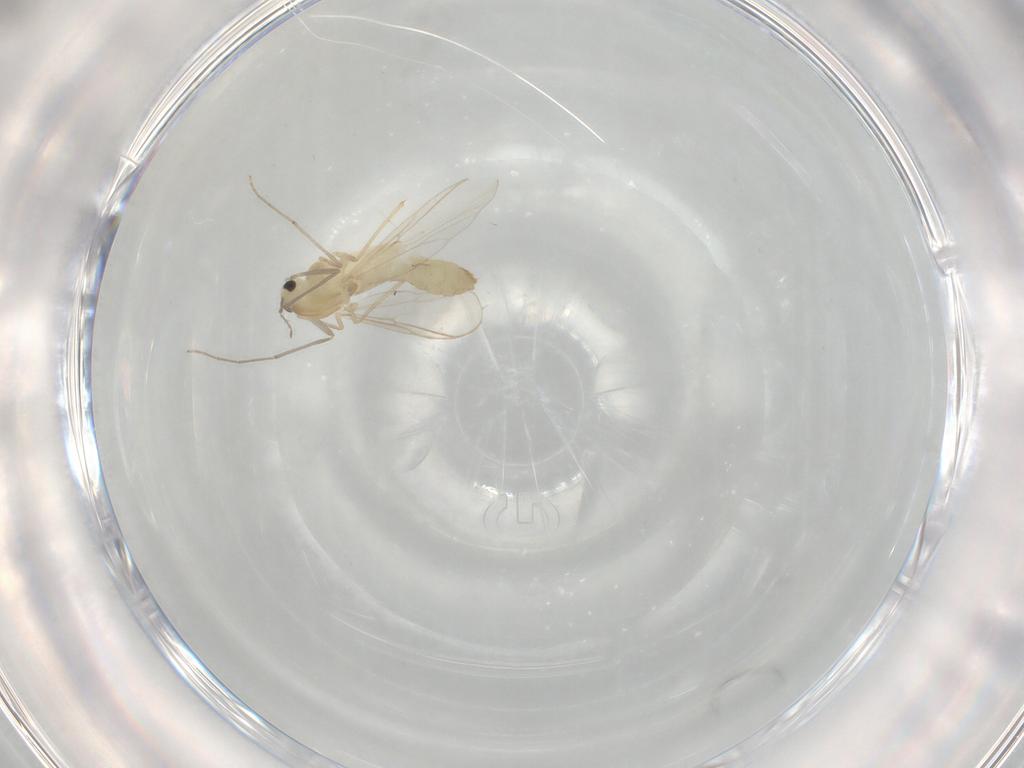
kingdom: Animalia
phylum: Arthropoda
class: Insecta
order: Diptera
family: Chironomidae
